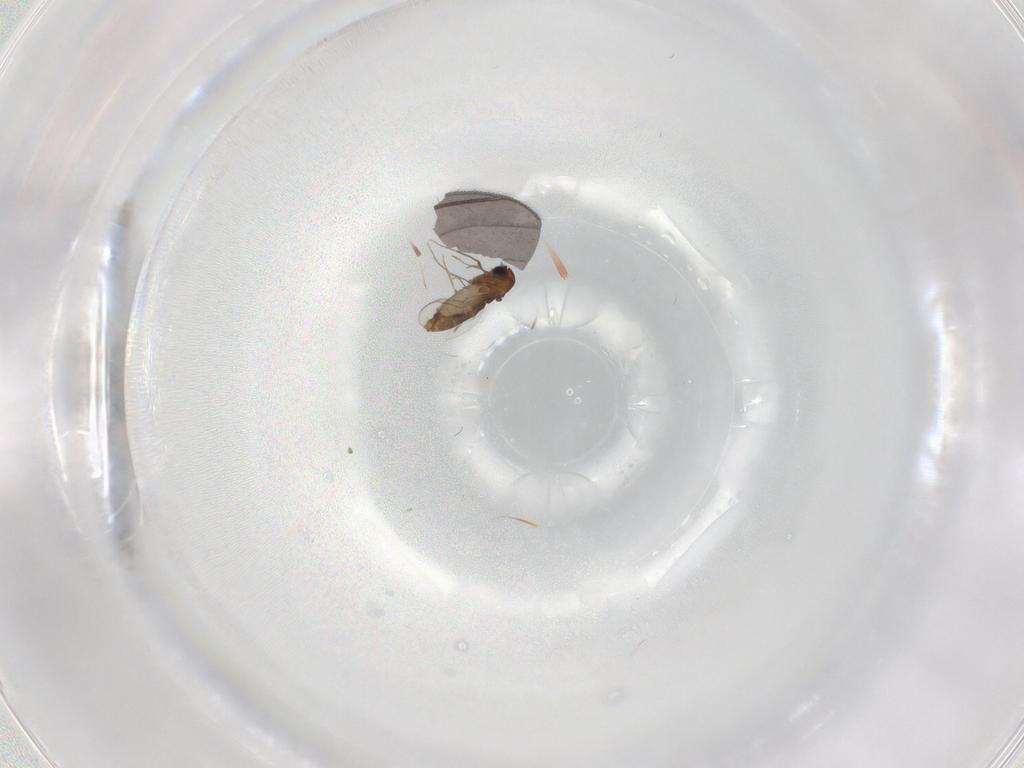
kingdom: Animalia
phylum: Arthropoda
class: Insecta
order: Diptera
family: Chironomidae
